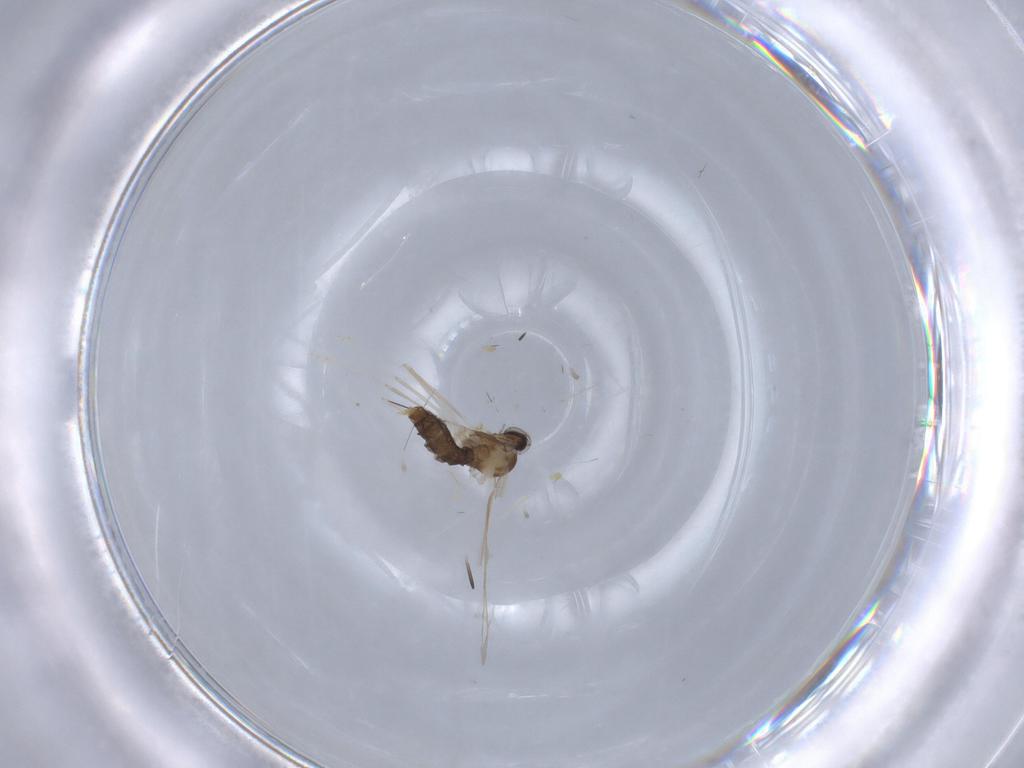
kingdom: Animalia
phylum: Arthropoda
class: Insecta
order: Diptera
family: Cecidomyiidae
